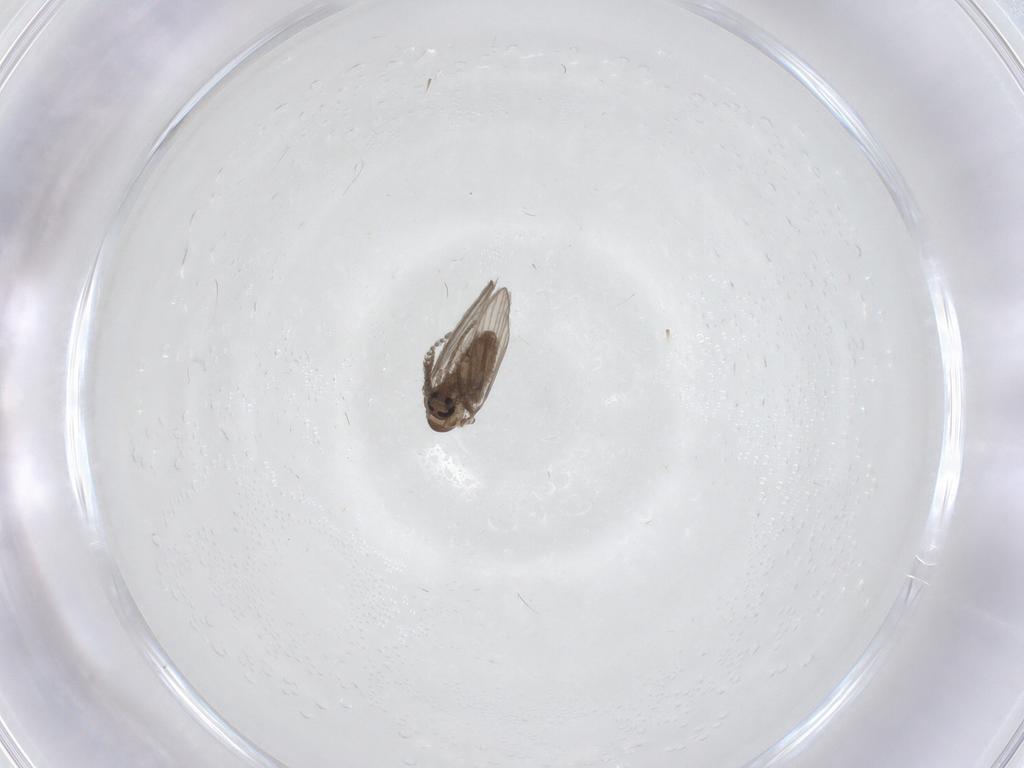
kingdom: Animalia
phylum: Arthropoda
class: Insecta
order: Diptera
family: Psychodidae
